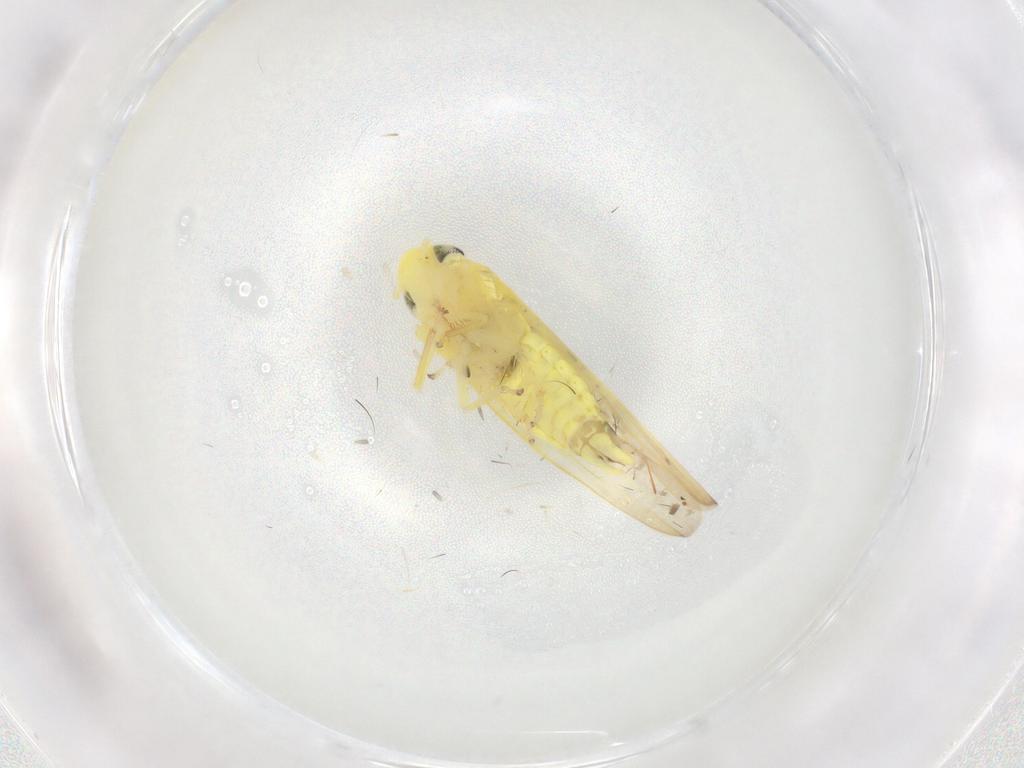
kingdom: Animalia
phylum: Arthropoda
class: Insecta
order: Hemiptera
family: Cicadellidae
